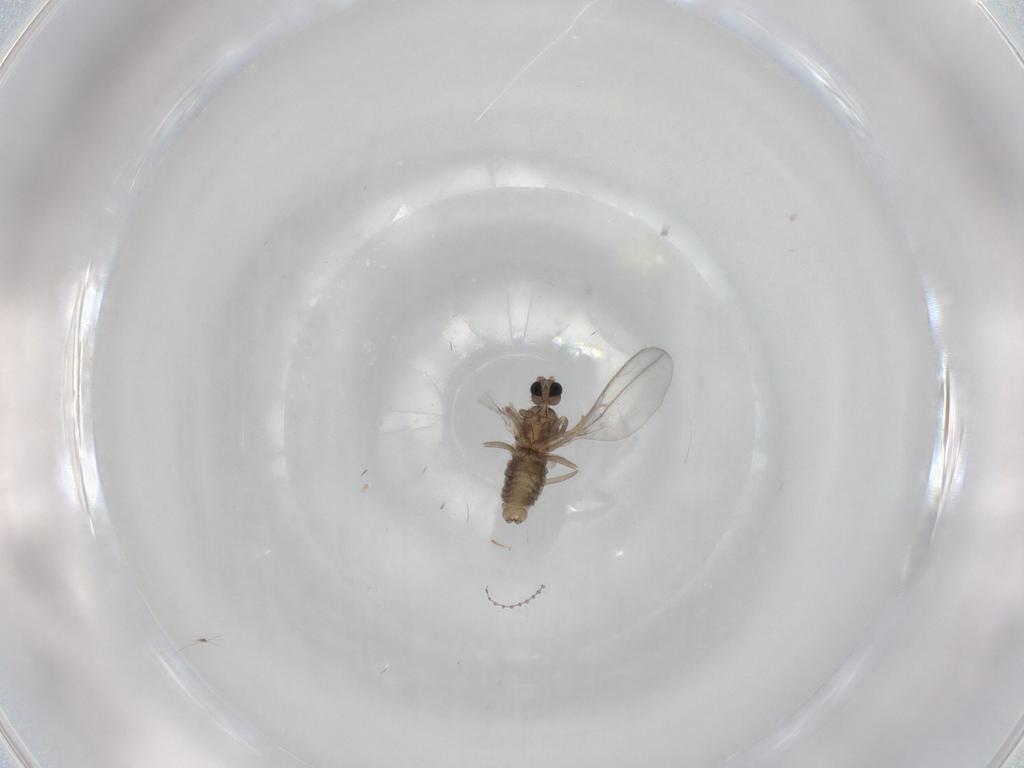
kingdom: Animalia
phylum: Arthropoda
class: Insecta
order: Diptera
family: Cecidomyiidae
